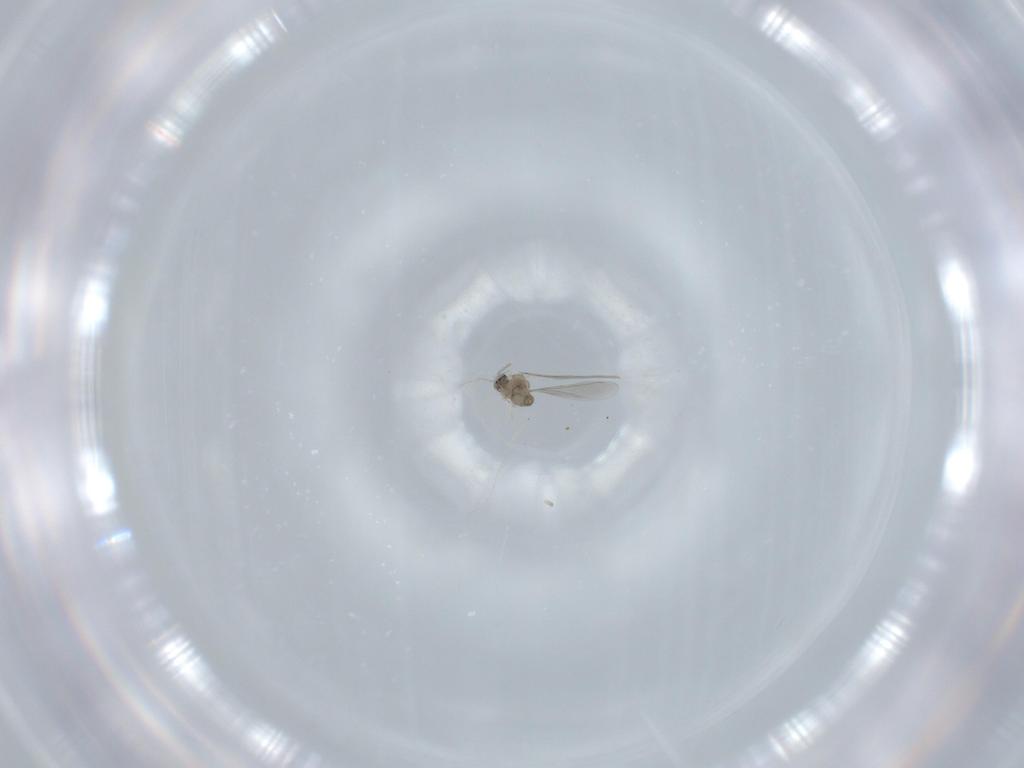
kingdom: Animalia
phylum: Arthropoda
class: Insecta
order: Diptera
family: Cecidomyiidae
